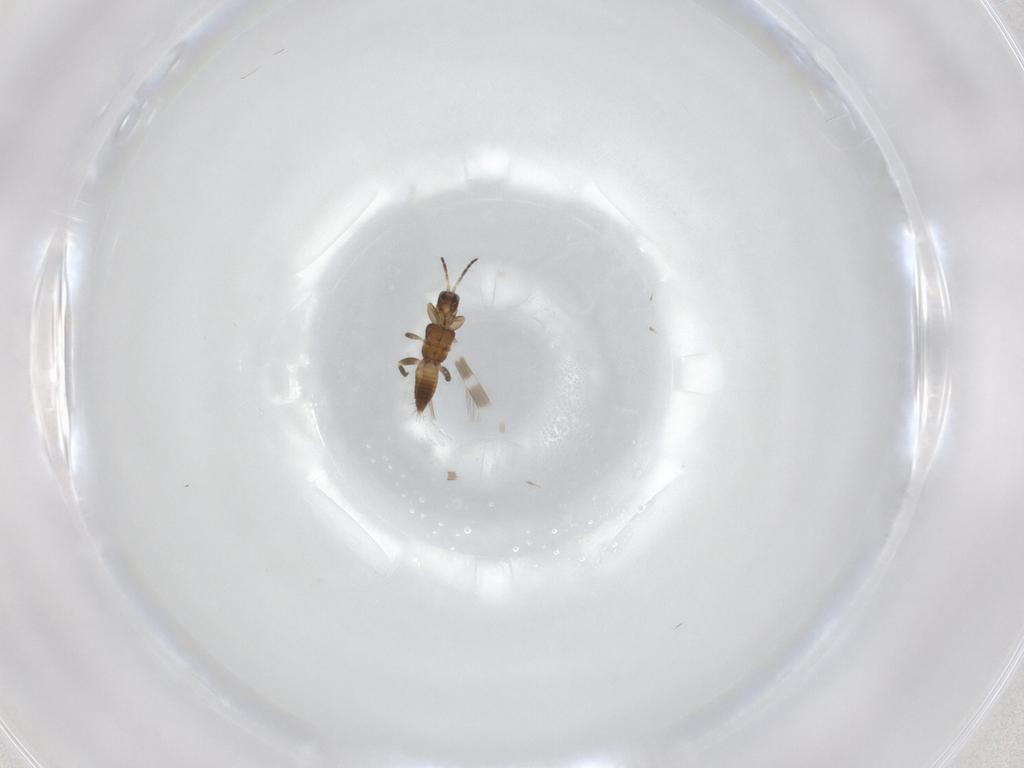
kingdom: Animalia
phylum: Arthropoda
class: Insecta
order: Thysanoptera
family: Aeolothripidae
